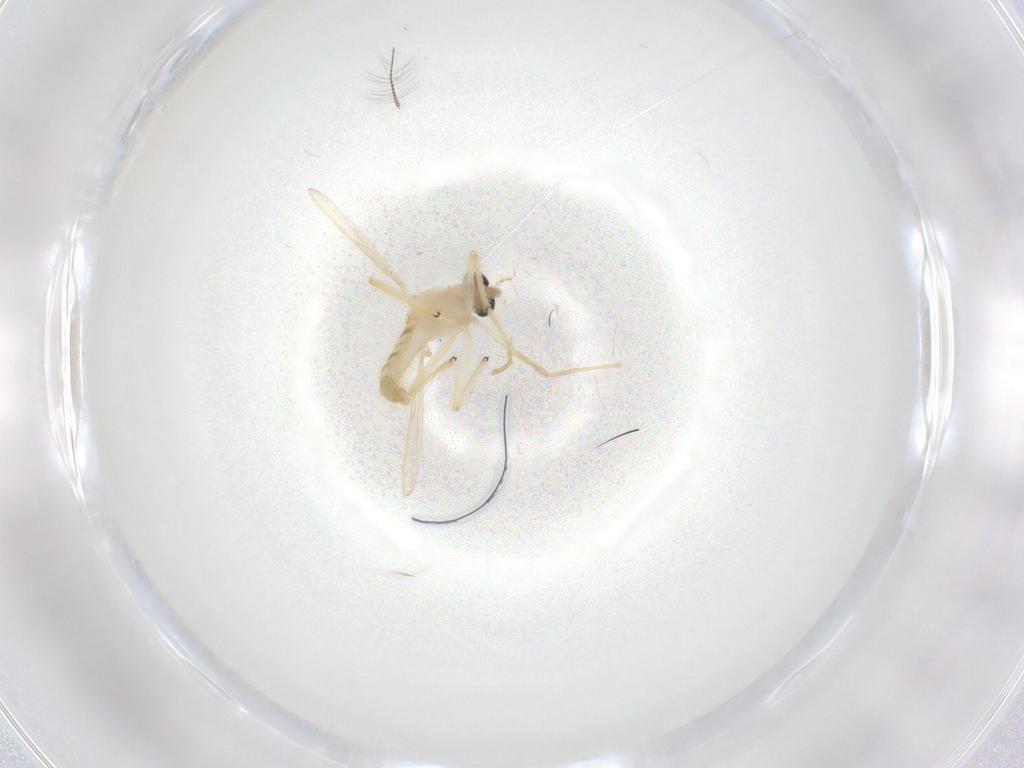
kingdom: Animalia
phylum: Arthropoda
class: Insecta
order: Diptera
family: Chironomidae
